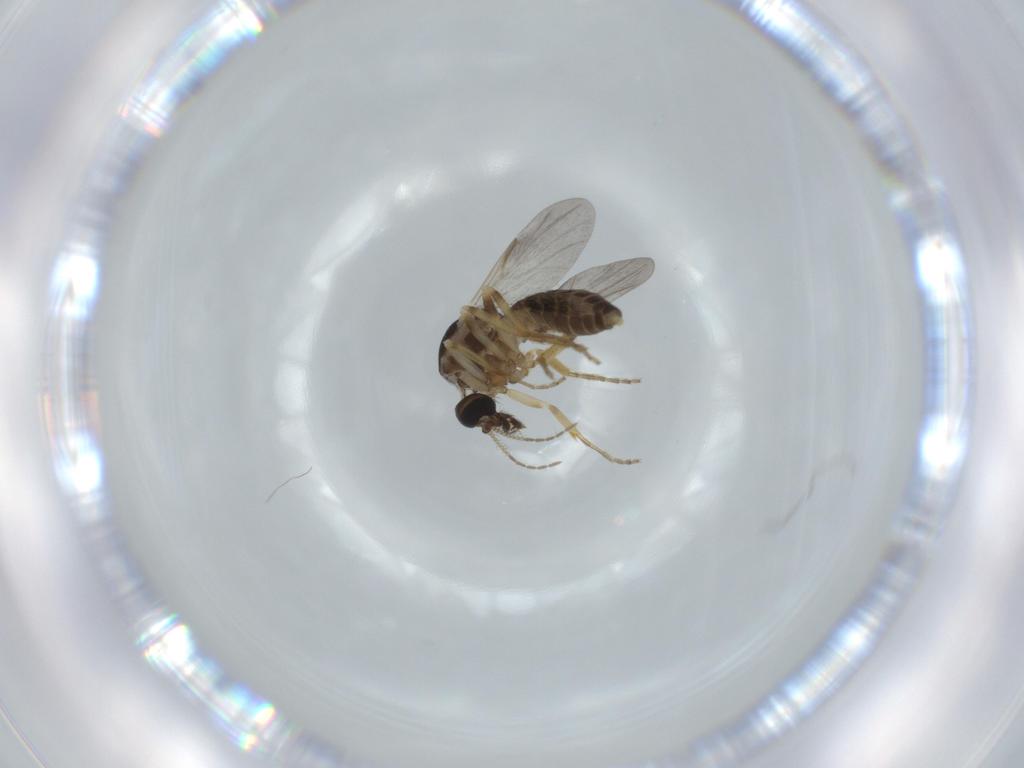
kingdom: Animalia
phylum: Arthropoda
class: Insecta
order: Diptera
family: Ceratopogonidae
